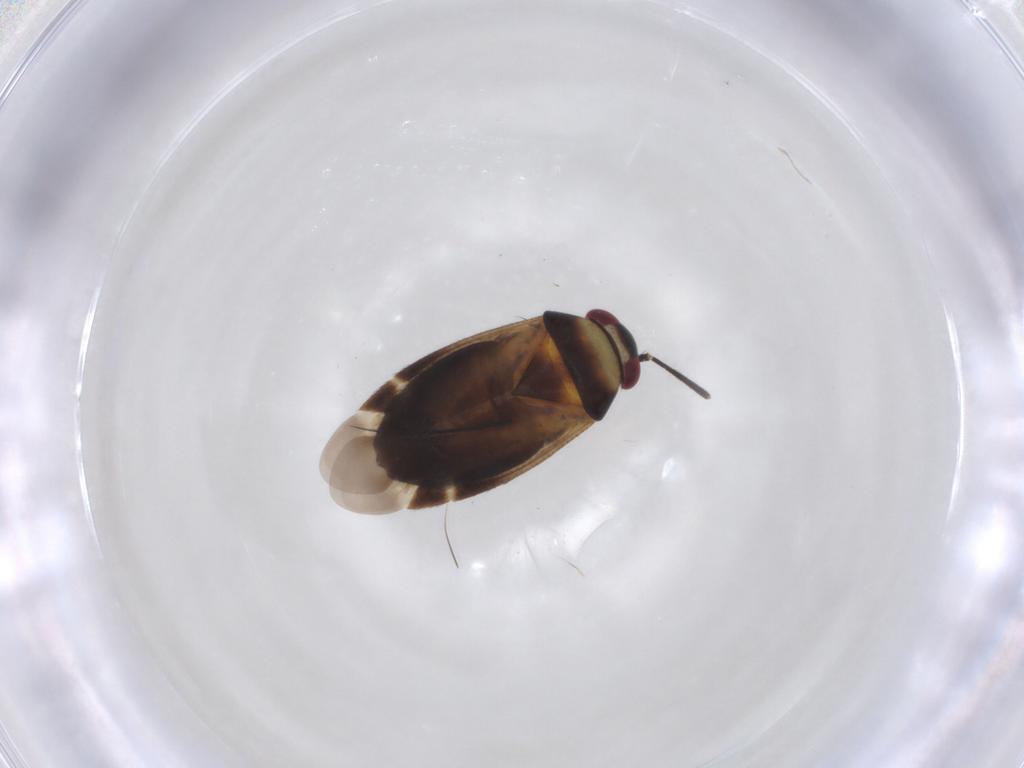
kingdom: Animalia
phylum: Arthropoda
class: Insecta
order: Hemiptera
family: Miridae
